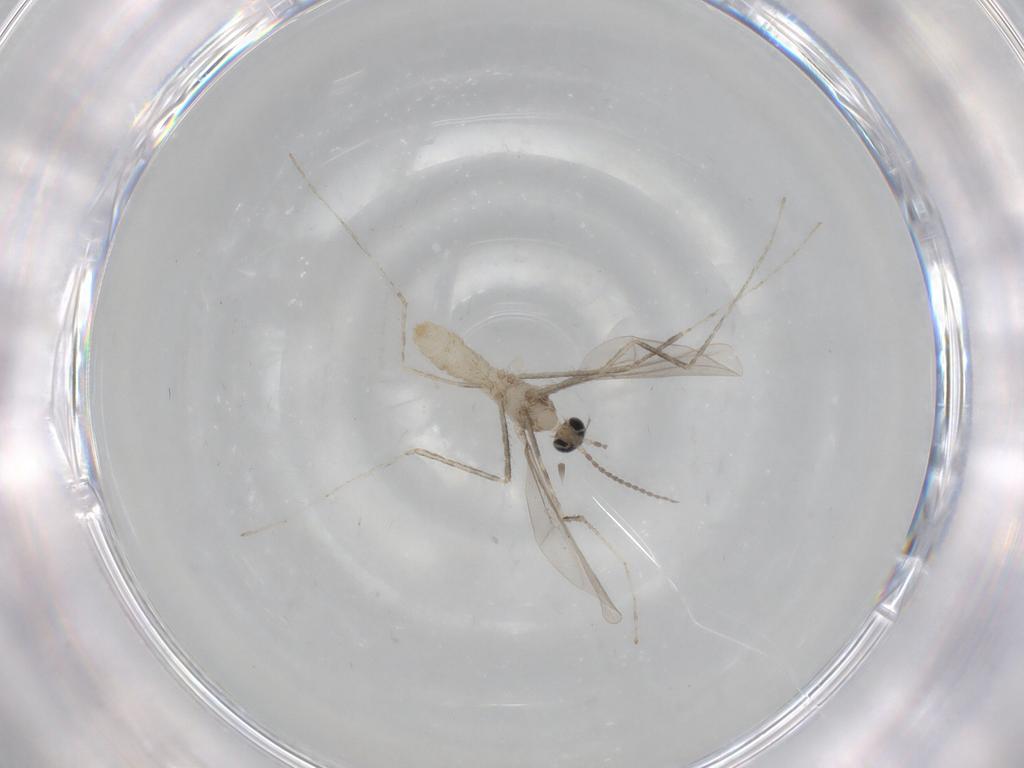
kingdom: Animalia
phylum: Arthropoda
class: Insecta
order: Diptera
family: Cecidomyiidae
